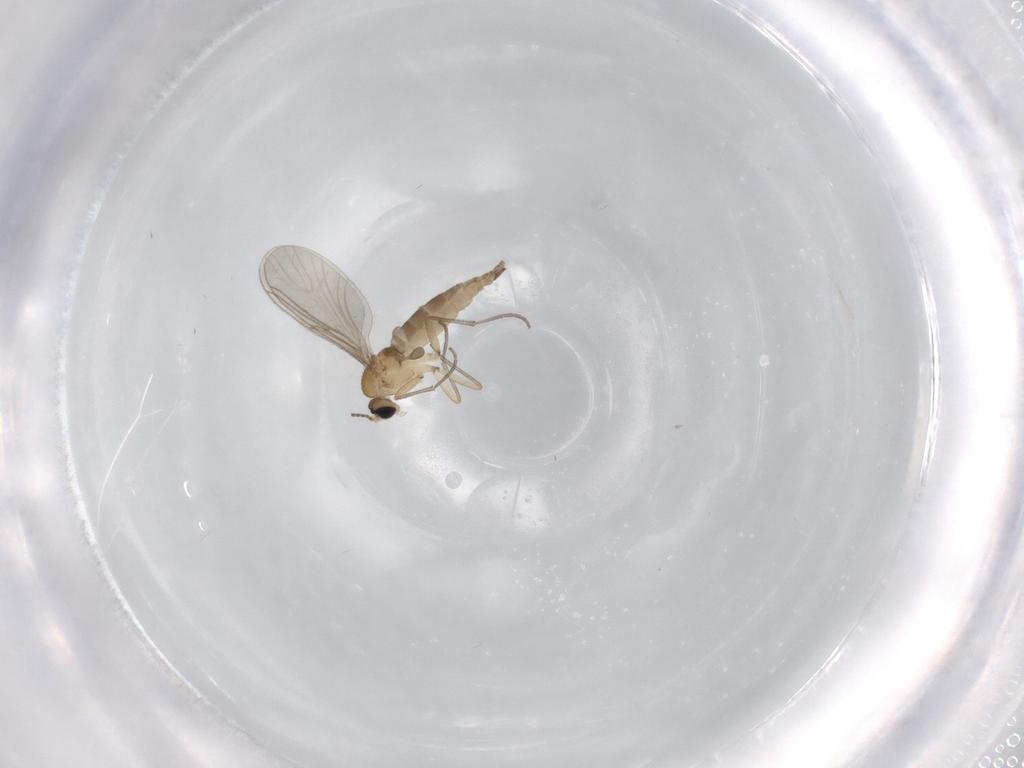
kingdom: Animalia
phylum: Arthropoda
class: Insecta
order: Diptera
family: Sciaridae
